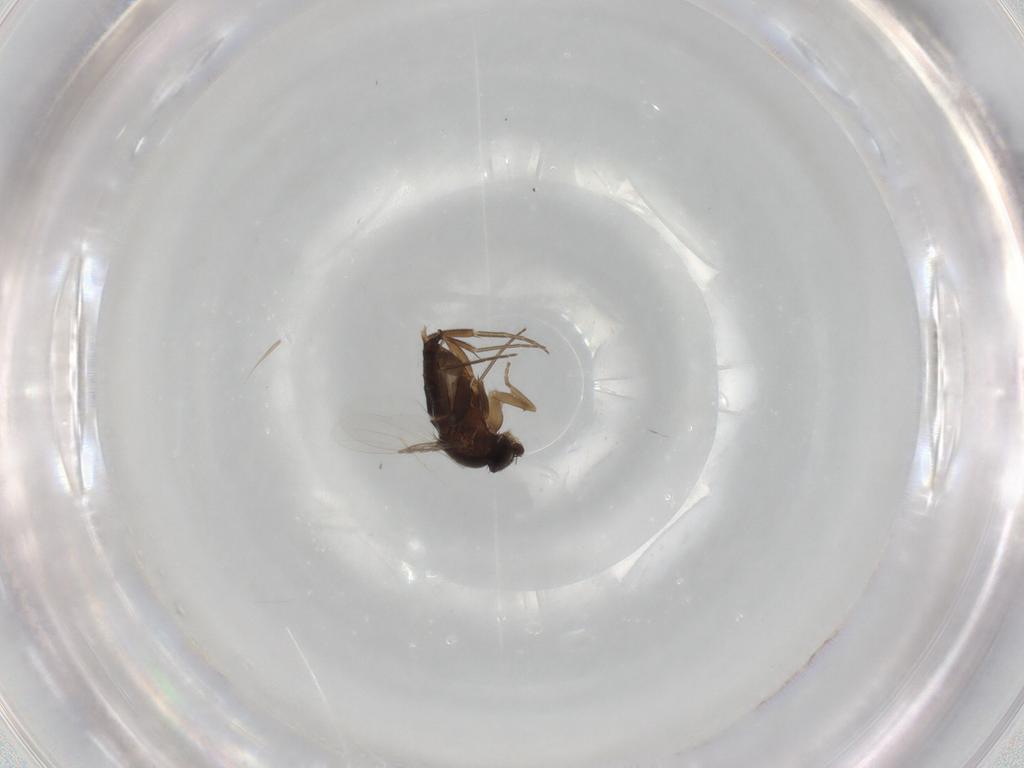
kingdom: Animalia
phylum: Arthropoda
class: Insecta
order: Diptera
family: Phoridae
